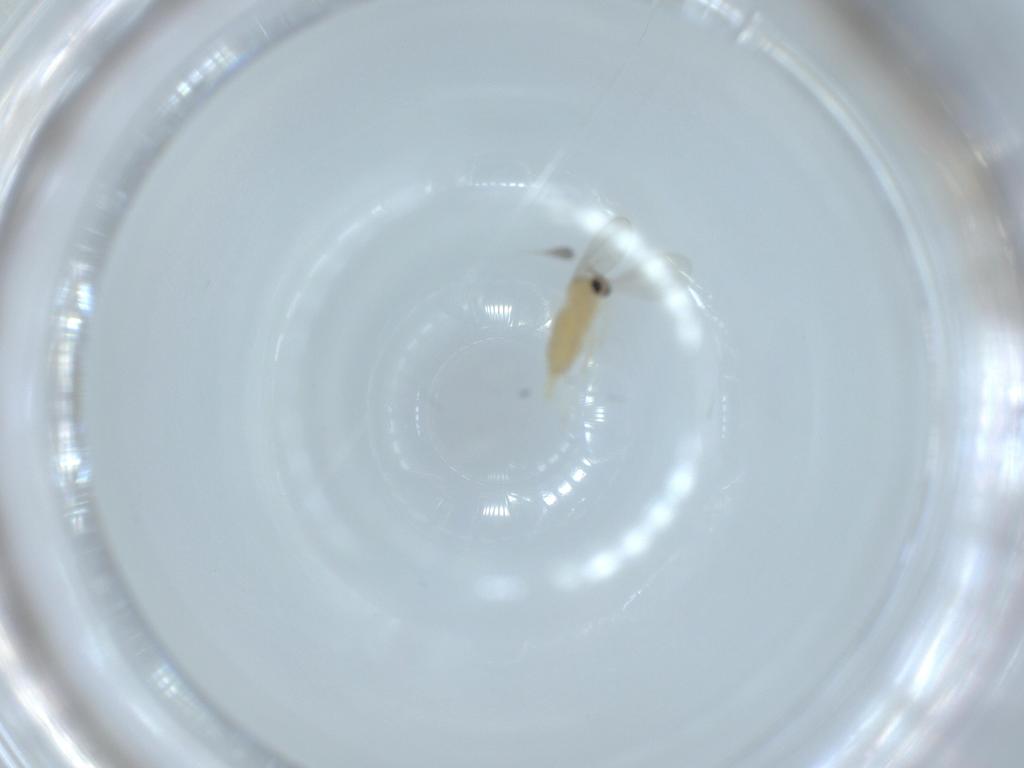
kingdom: Animalia
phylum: Arthropoda
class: Insecta
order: Diptera
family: Cecidomyiidae
